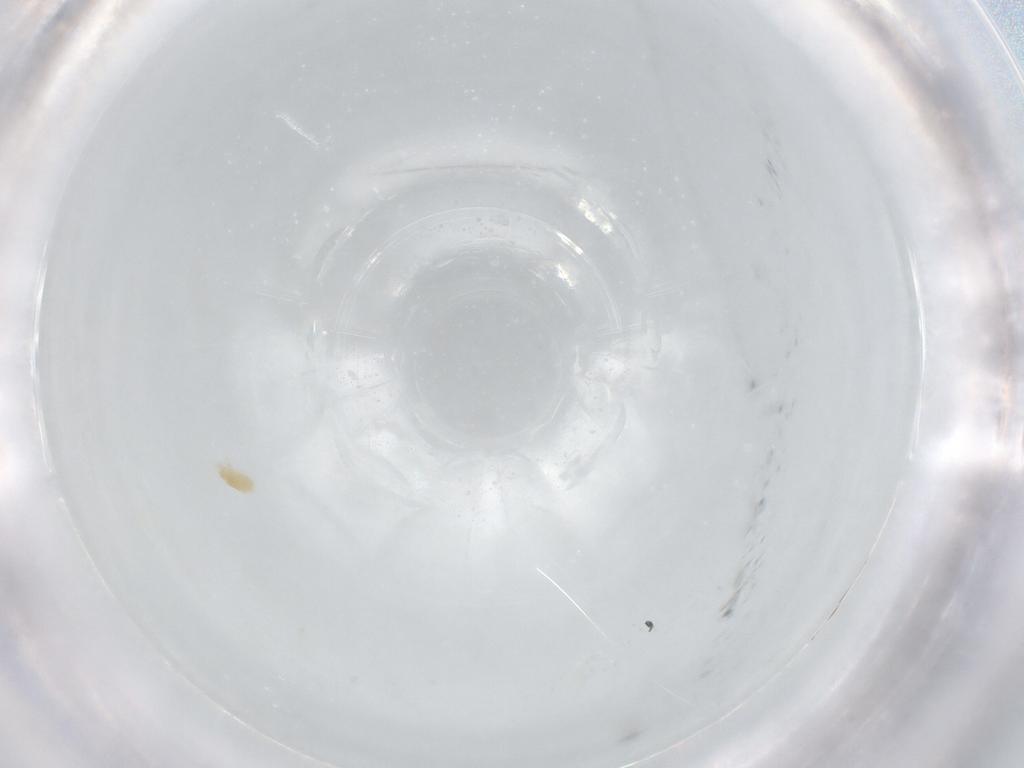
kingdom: Animalia
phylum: Arthropoda
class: Arachnida
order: Trombidiformes
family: Eupodidae
